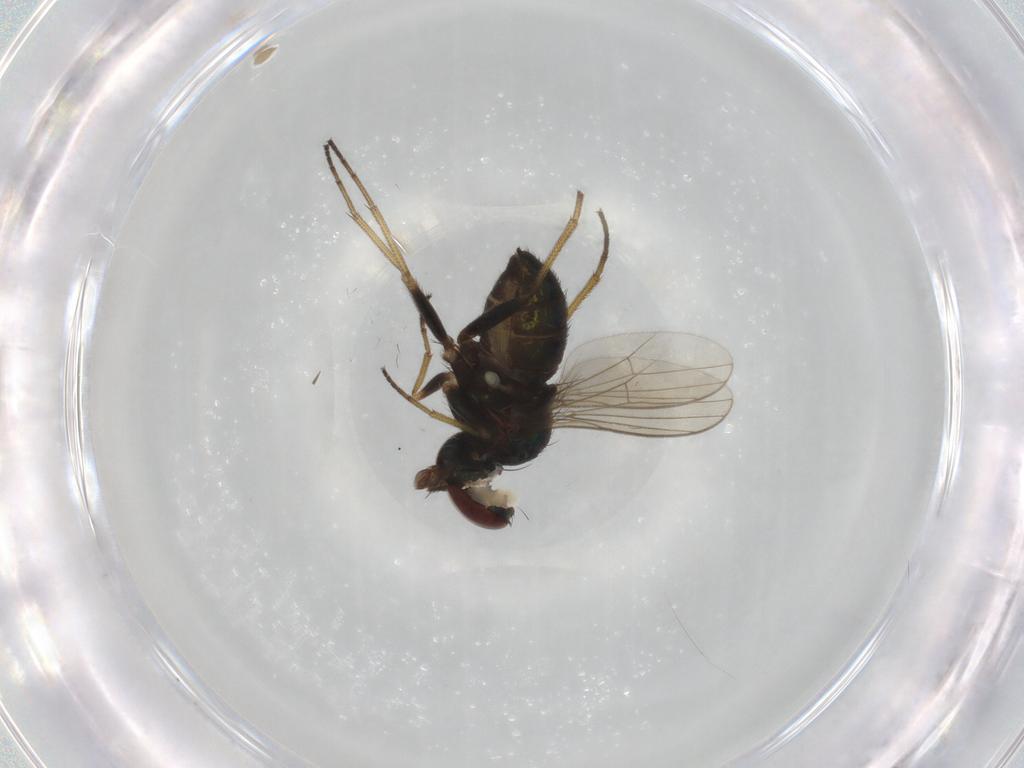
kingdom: Animalia
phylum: Arthropoda
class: Insecta
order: Diptera
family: Dolichopodidae
